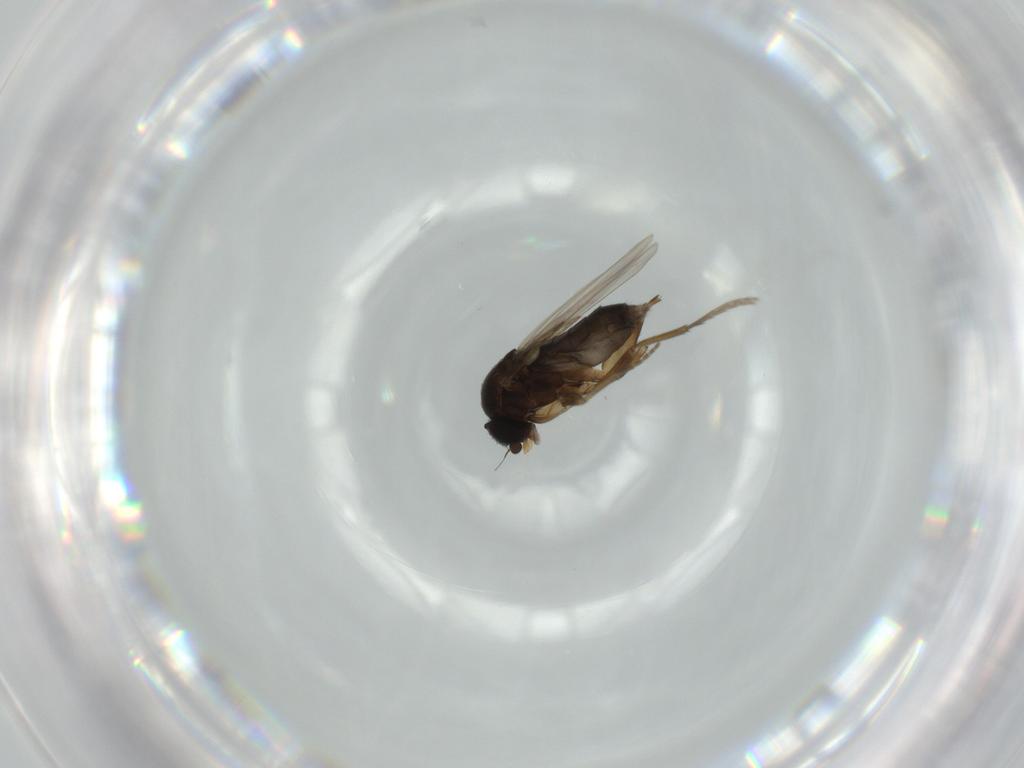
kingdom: Animalia
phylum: Arthropoda
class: Insecta
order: Diptera
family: Phoridae
